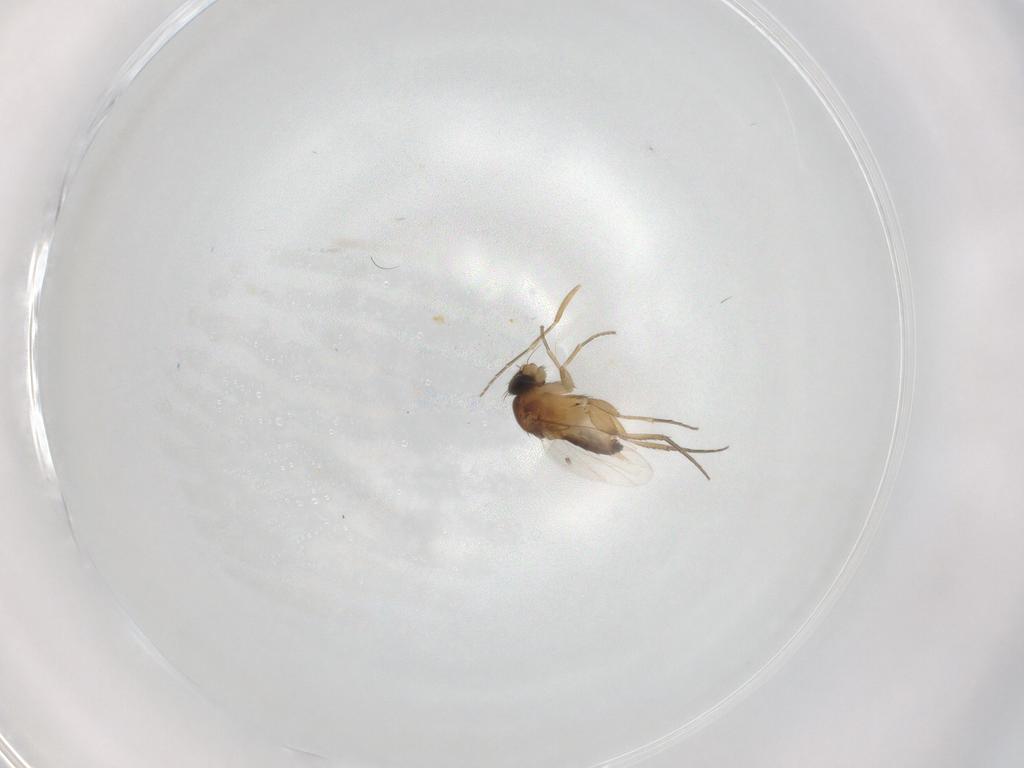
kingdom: Animalia
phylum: Arthropoda
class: Insecta
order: Diptera
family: Phoridae
